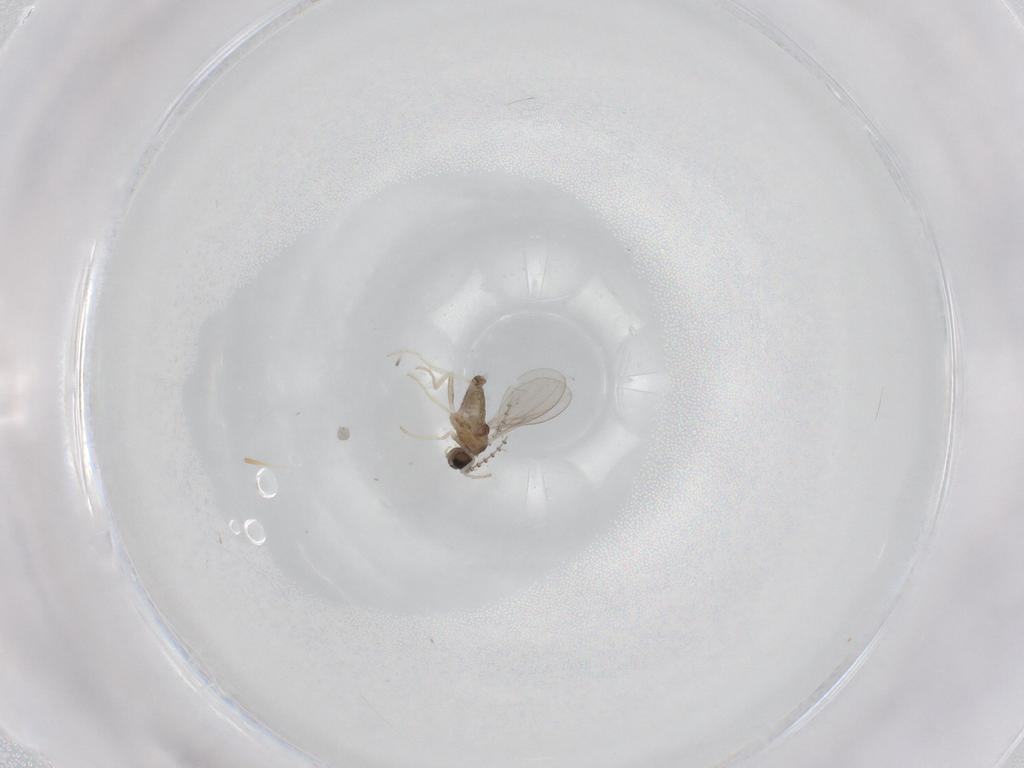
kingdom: Animalia
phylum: Arthropoda
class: Insecta
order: Diptera
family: Cecidomyiidae
